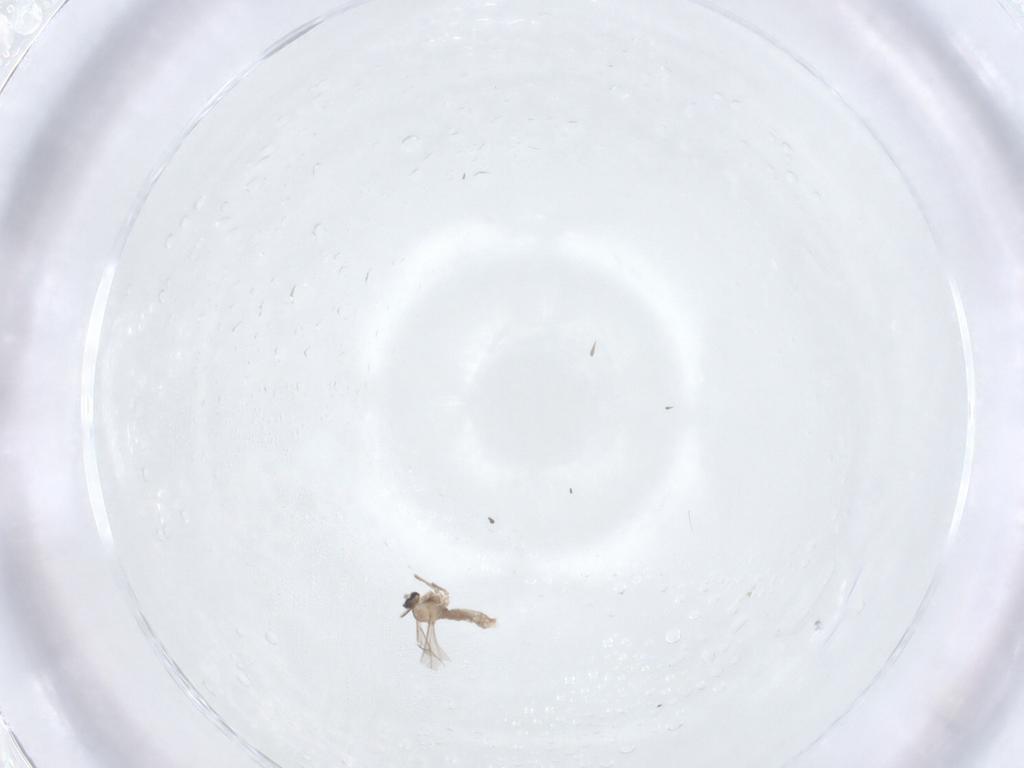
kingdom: Animalia
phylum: Arthropoda
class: Insecta
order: Diptera
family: Cecidomyiidae
